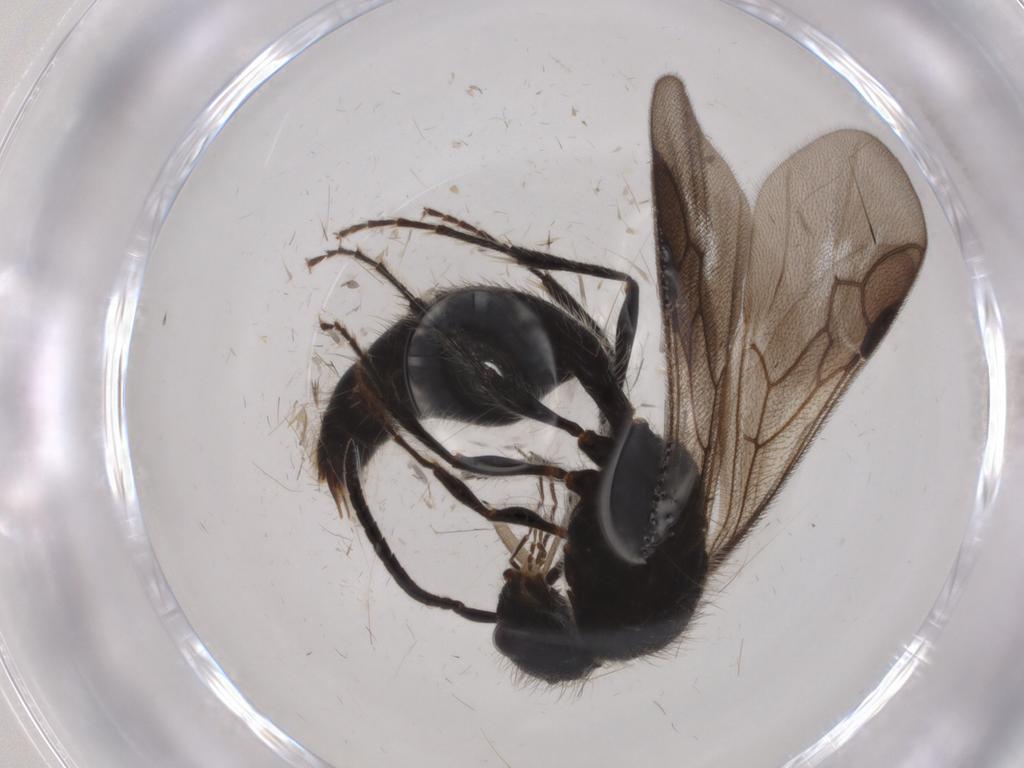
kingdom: Animalia
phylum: Arthropoda
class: Insecta
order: Hymenoptera
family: Mutillidae
